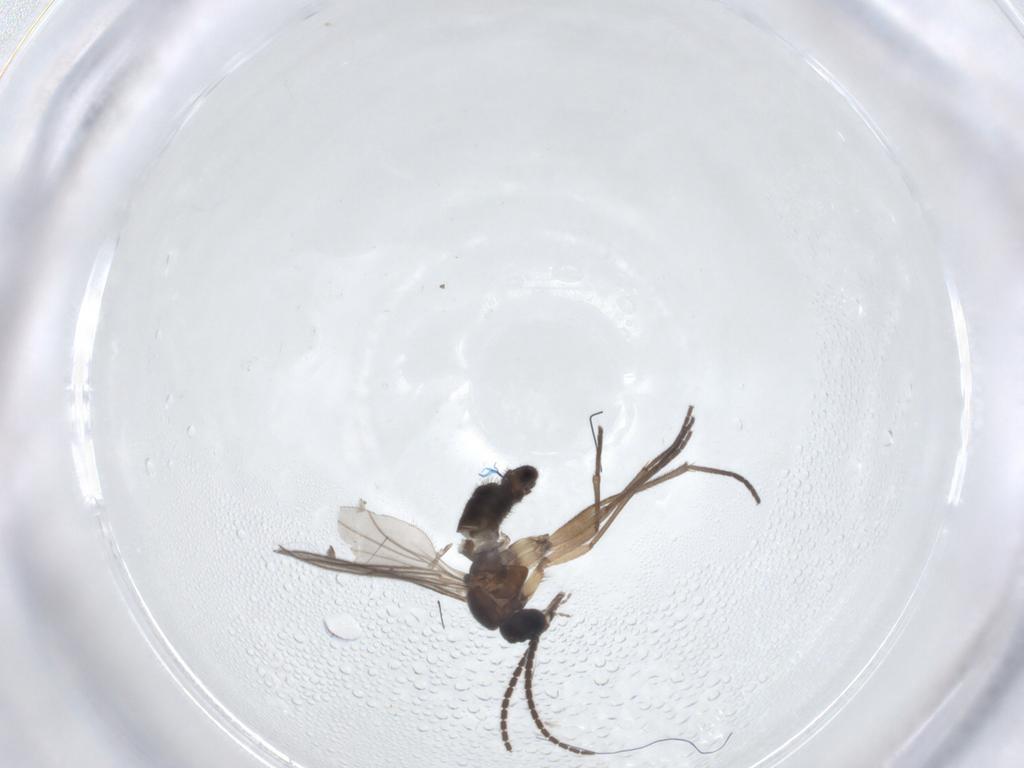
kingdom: Animalia
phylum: Arthropoda
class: Insecta
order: Diptera
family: Sciaridae
